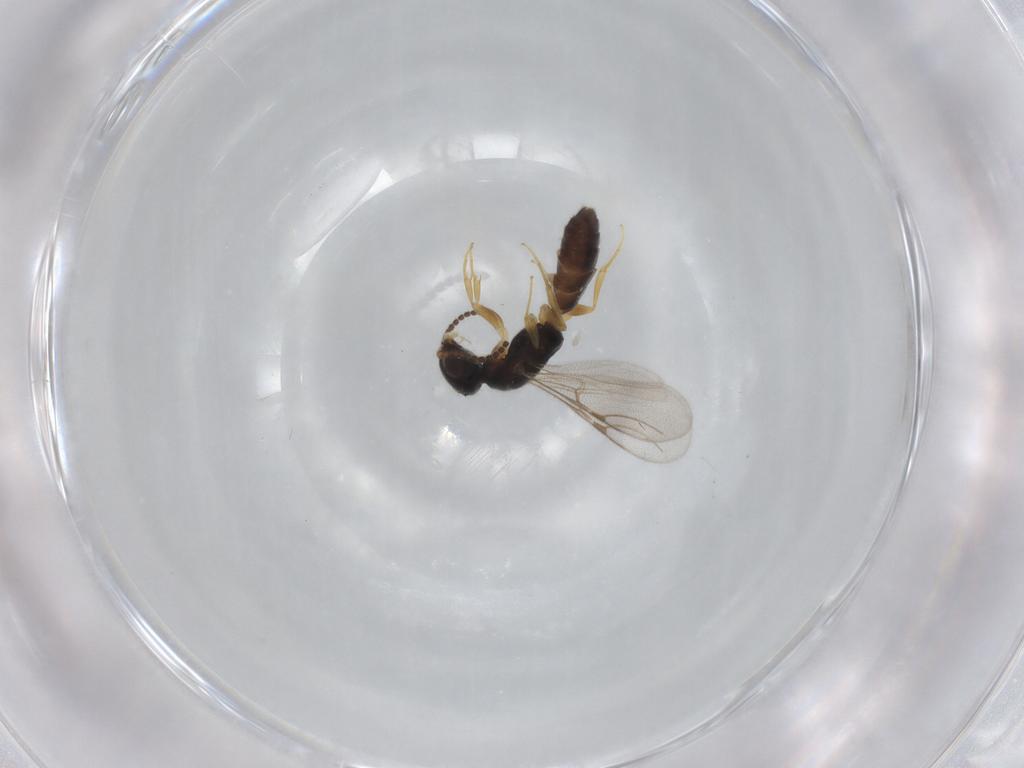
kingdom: Animalia
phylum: Arthropoda
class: Insecta
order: Hymenoptera
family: Bethylidae
